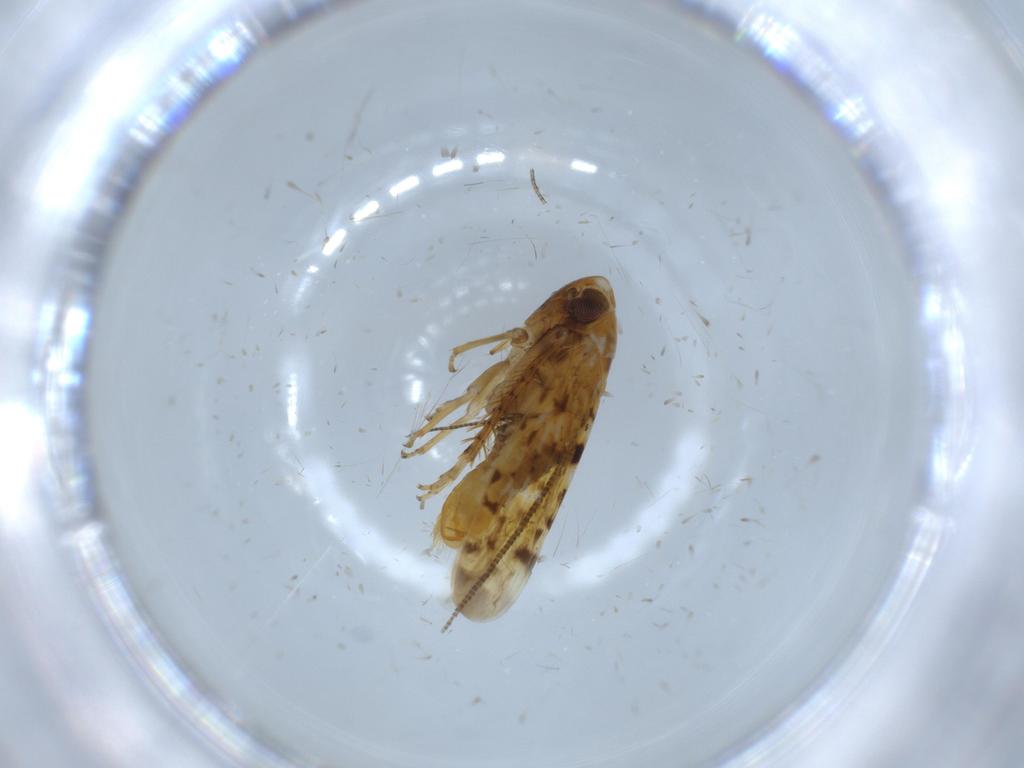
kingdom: Animalia
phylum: Arthropoda
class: Insecta
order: Hemiptera
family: Cicadellidae
